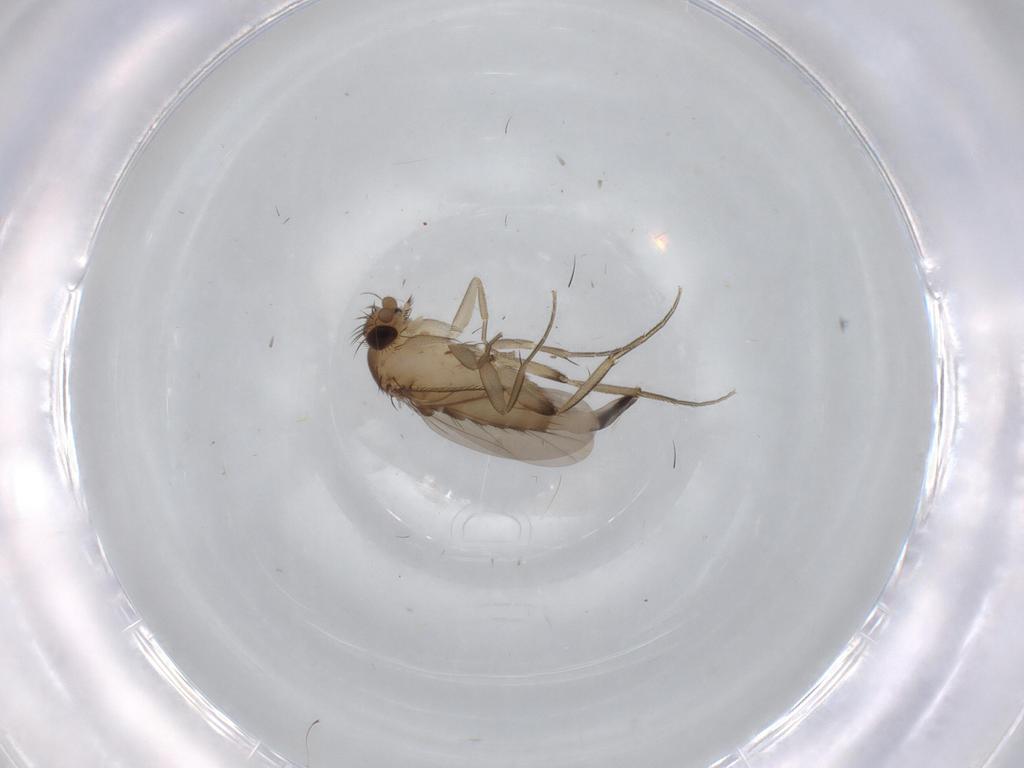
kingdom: Animalia
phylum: Arthropoda
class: Insecta
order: Diptera
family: Phoridae
